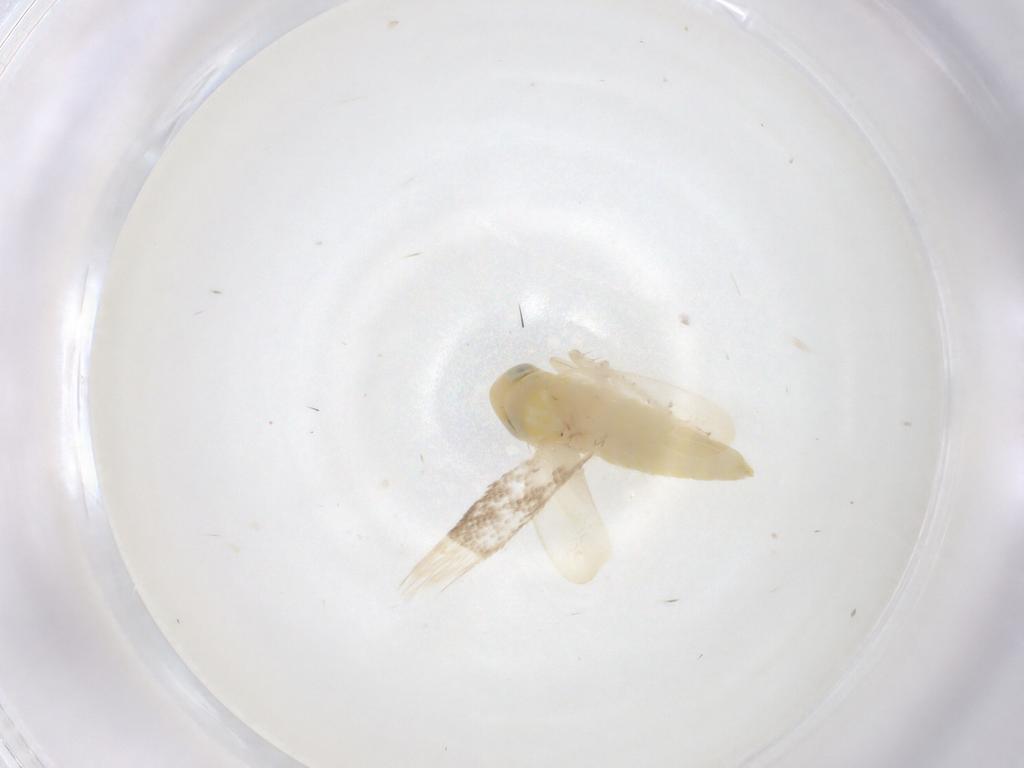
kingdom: Animalia
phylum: Arthropoda
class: Insecta
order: Hemiptera
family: Cicadellidae
